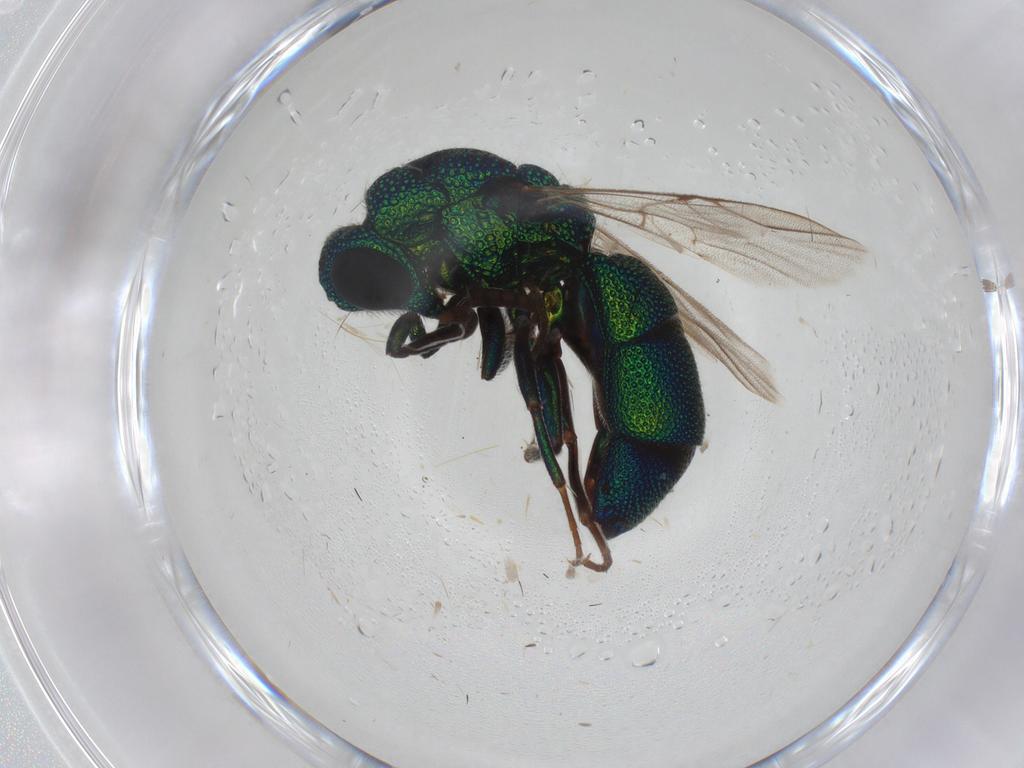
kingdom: Animalia
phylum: Arthropoda
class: Insecta
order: Hymenoptera
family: Chrysididae
